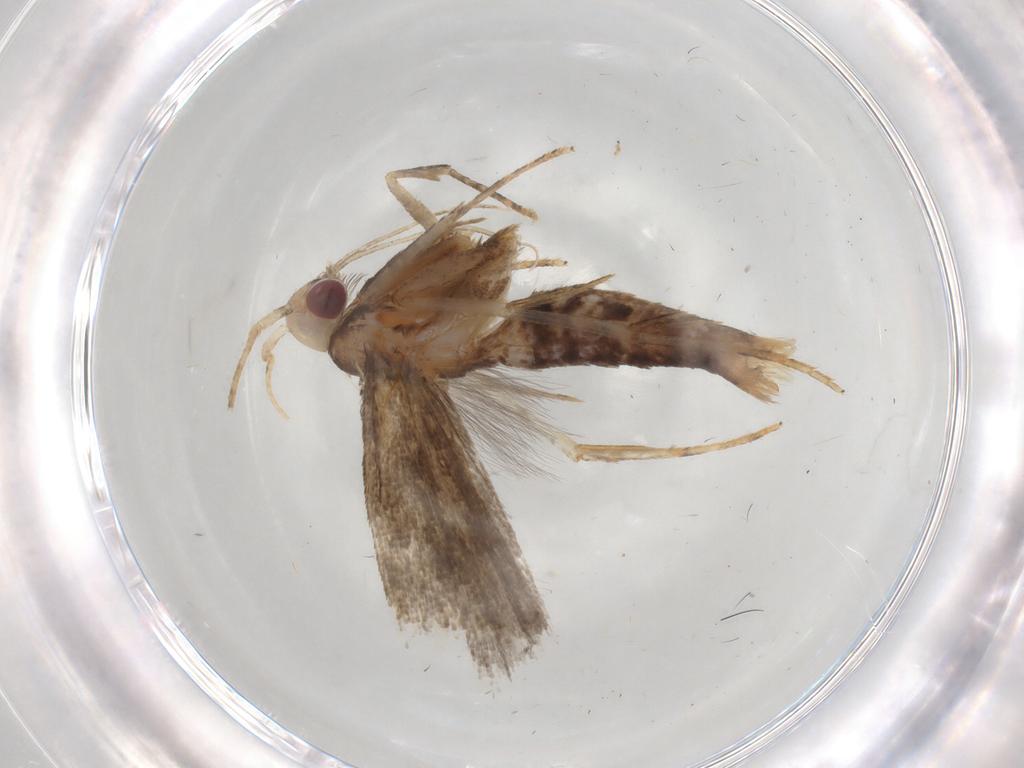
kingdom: Animalia
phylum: Arthropoda
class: Insecta
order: Lepidoptera
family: Gelechiidae
